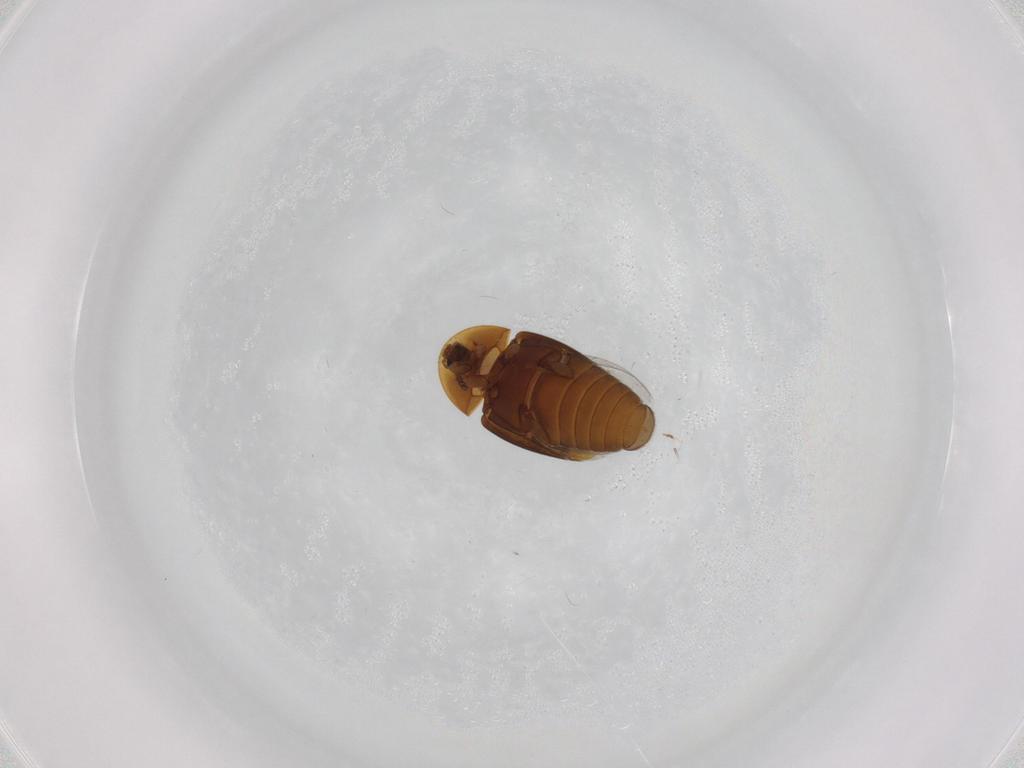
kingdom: Animalia
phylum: Arthropoda
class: Insecta
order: Coleoptera
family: Corylophidae
